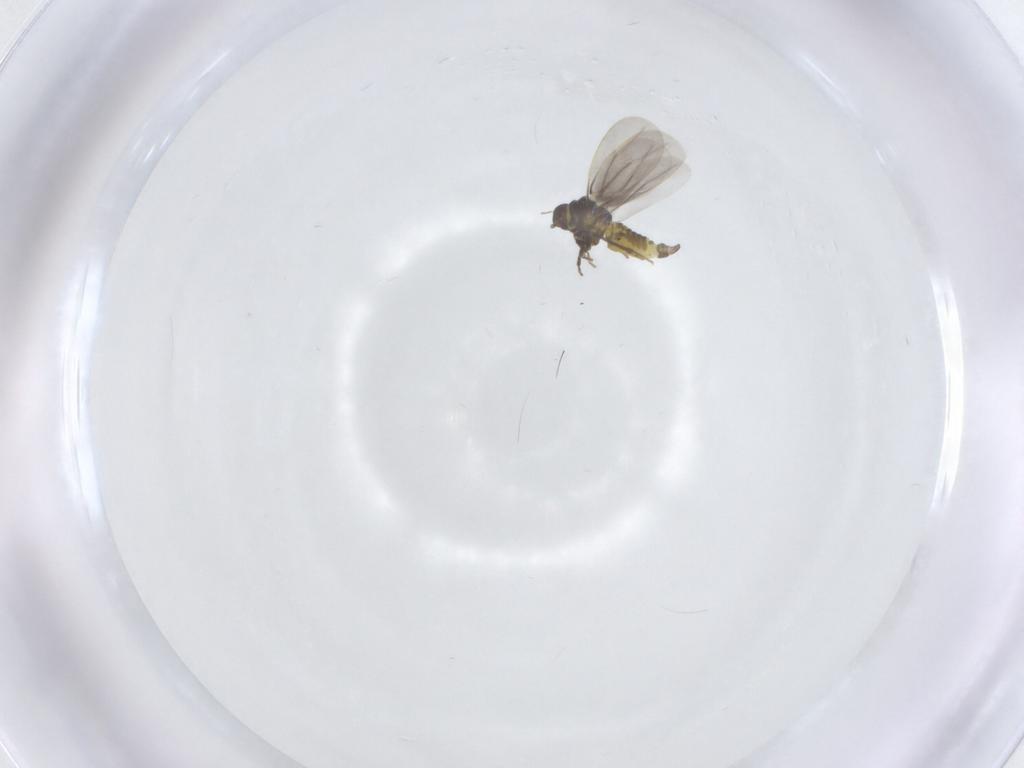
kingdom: Animalia
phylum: Arthropoda
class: Insecta
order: Hemiptera
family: Aleyrodidae
